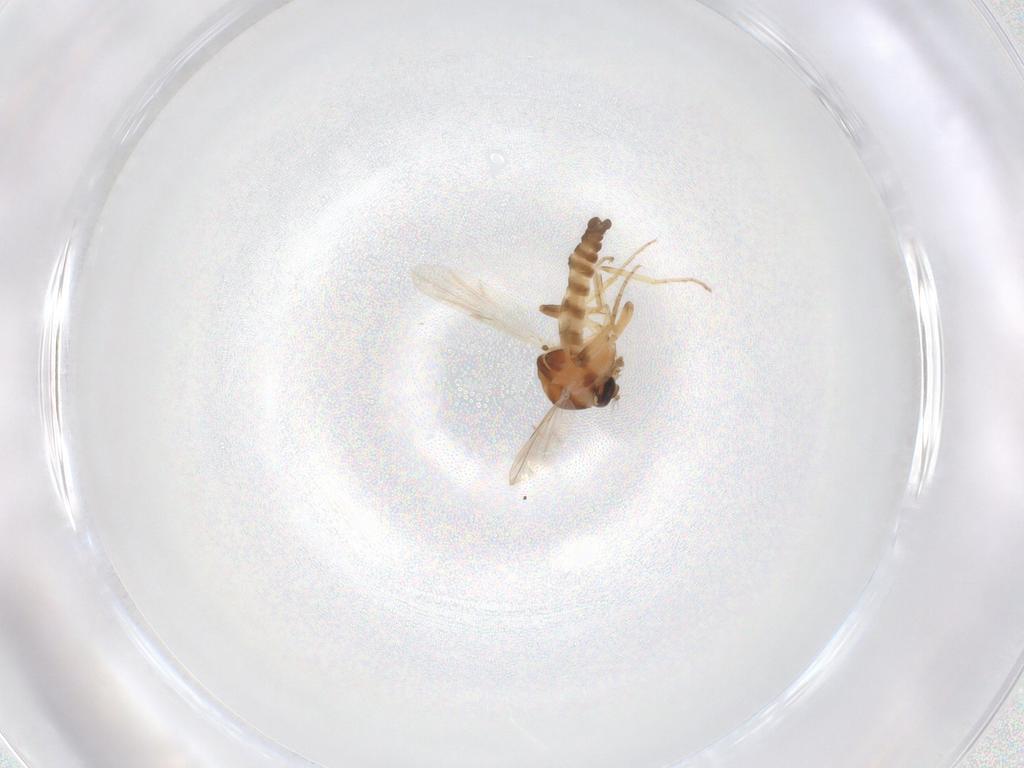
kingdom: Animalia
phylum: Arthropoda
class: Insecta
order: Diptera
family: Ceratopogonidae
